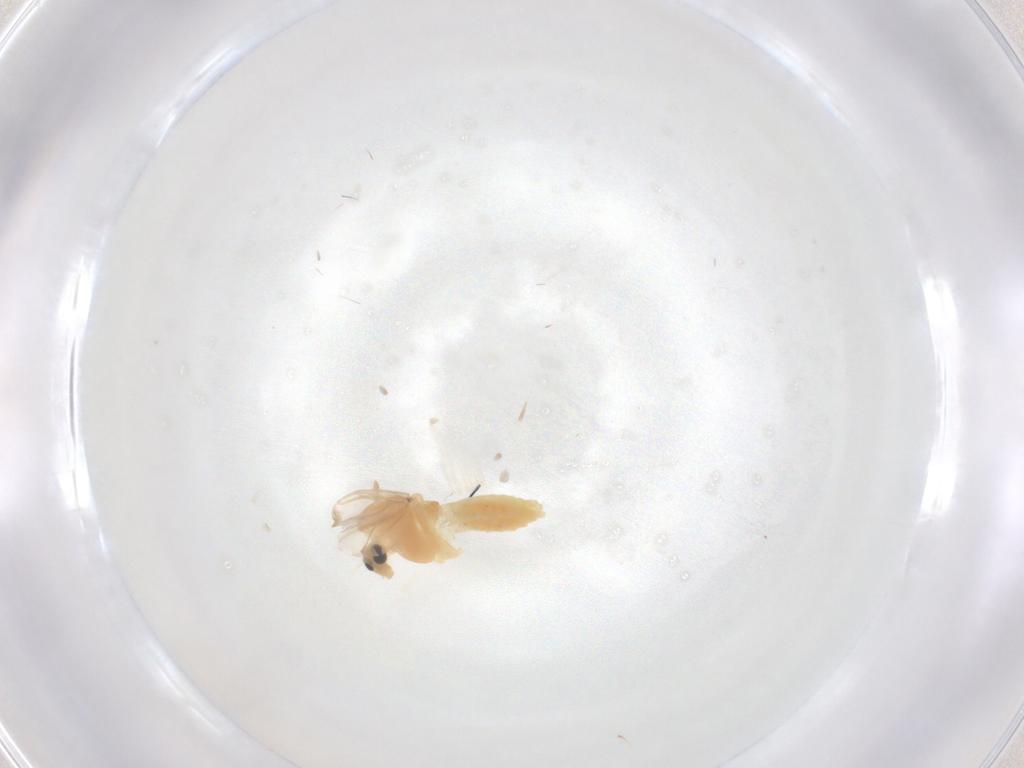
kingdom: Animalia
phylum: Arthropoda
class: Insecta
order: Diptera
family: Chironomidae
